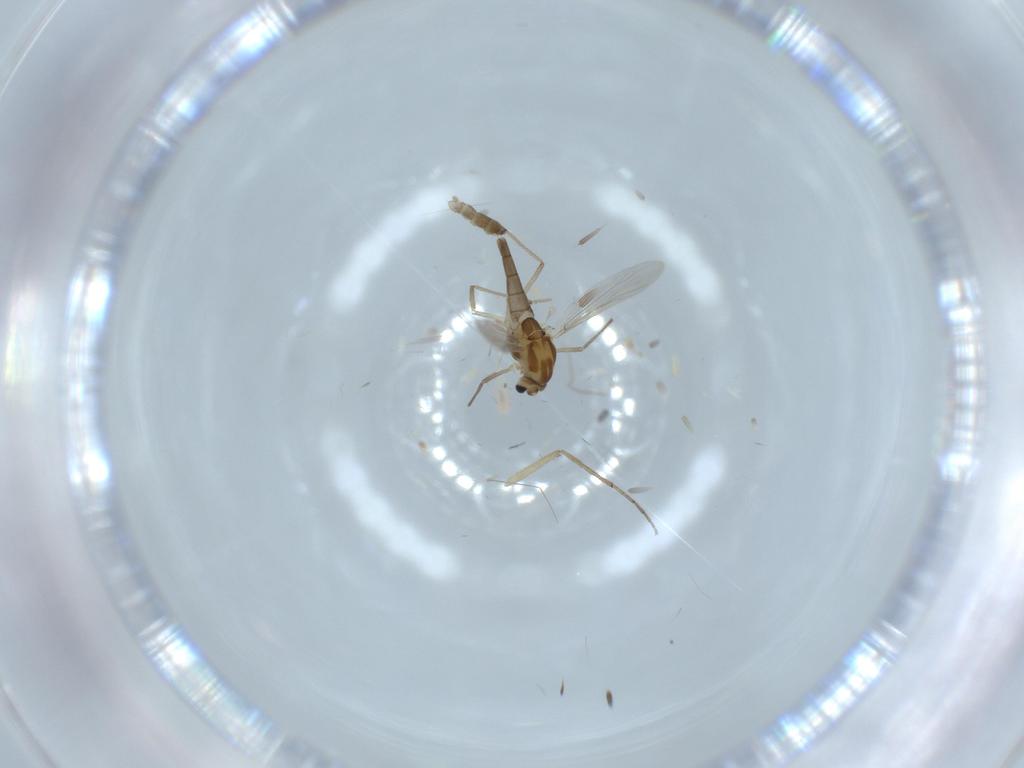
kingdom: Animalia
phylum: Arthropoda
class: Insecta
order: Diptera
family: Chironomidae
